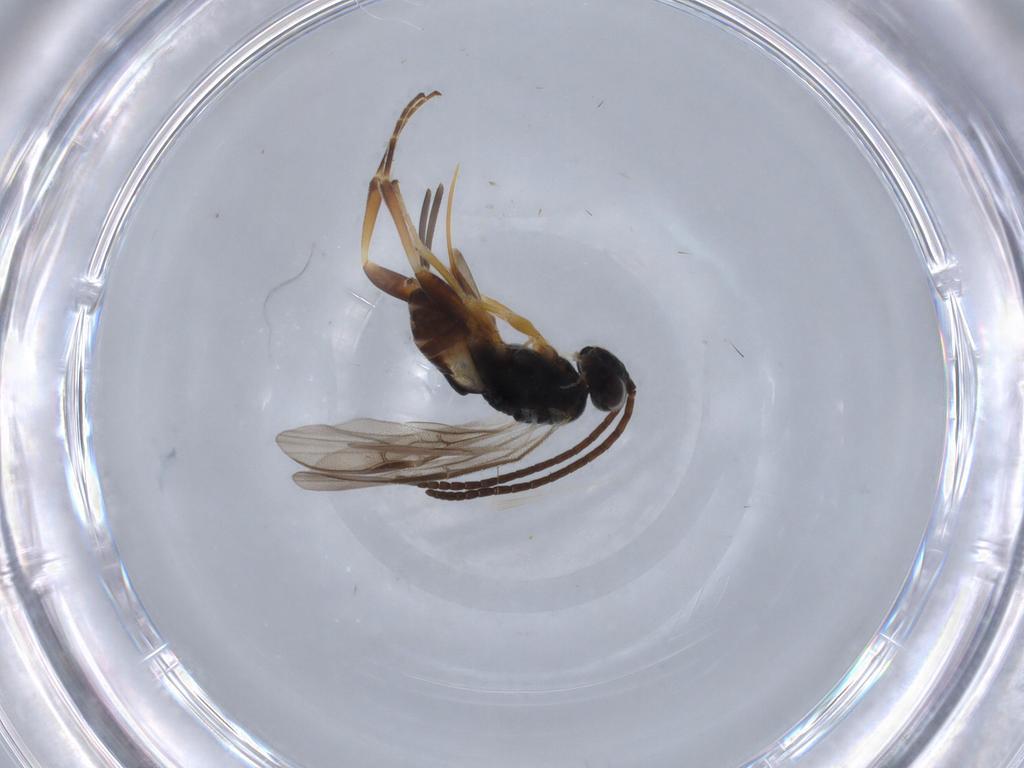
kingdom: Animalia
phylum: Arthropoda
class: Insecta
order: Hymenoptera
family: Braconidae
